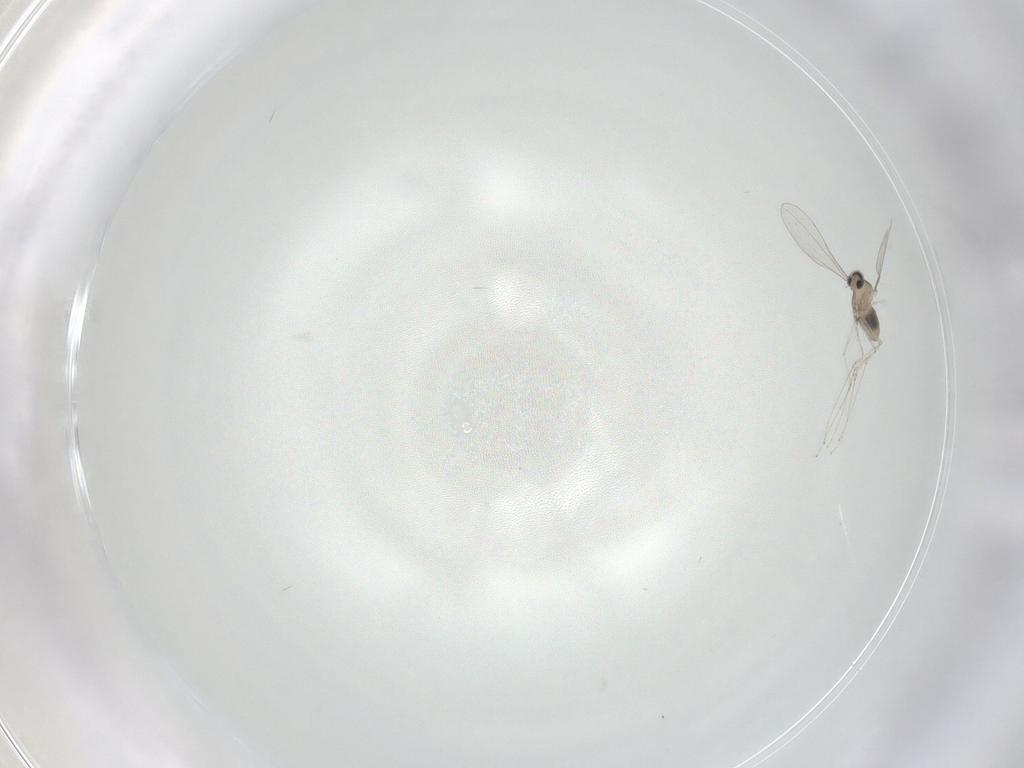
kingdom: Animalia
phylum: Arthropoda
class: Insecta
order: Diptera
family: Cecidomyiidae
